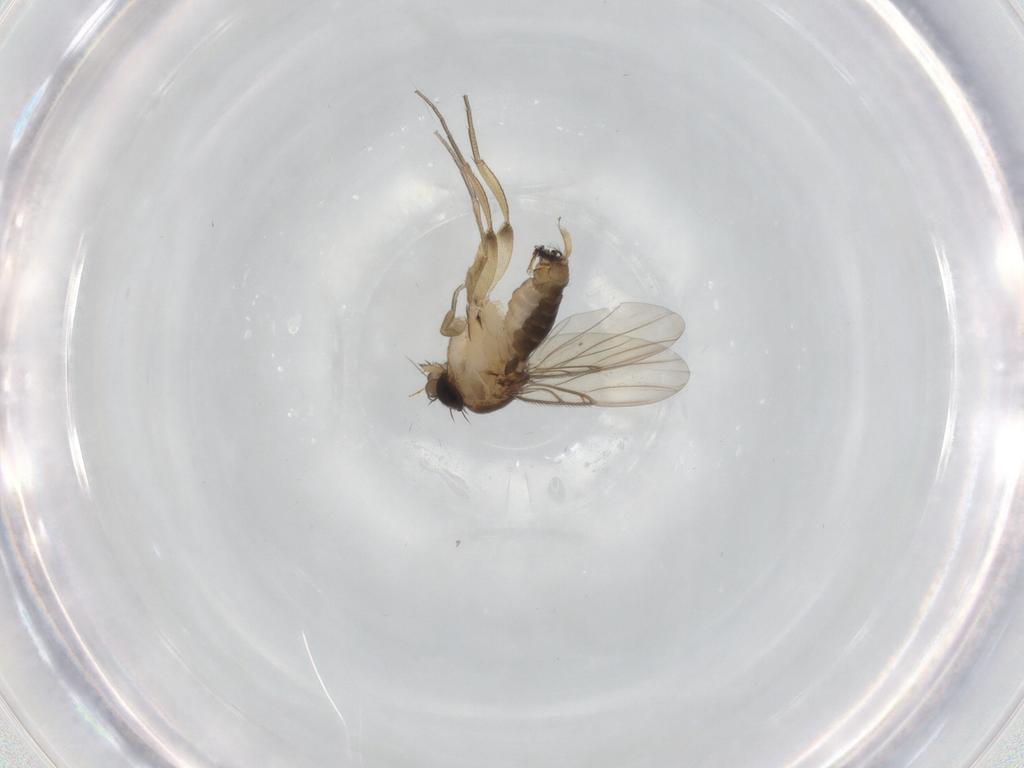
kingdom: Animalia
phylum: Arthropoda
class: Insecta
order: Diptera
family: Phoridae
